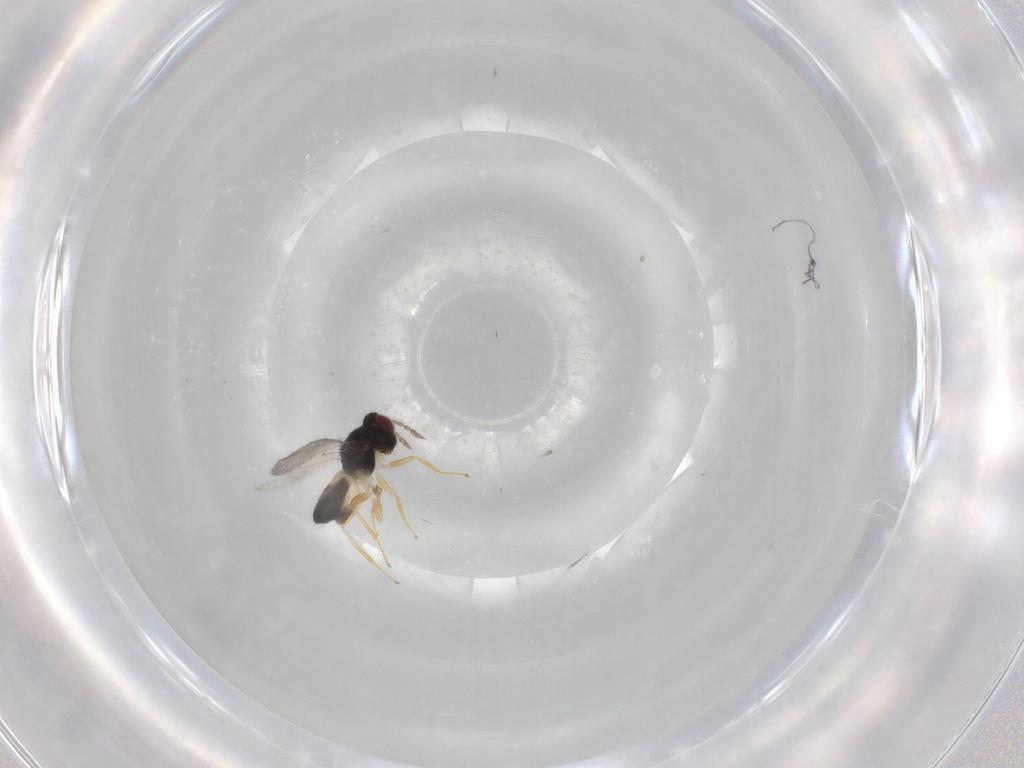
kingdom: Animalia
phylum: Arthropoda
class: Insecta
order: Hymenoptera
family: Eulophidae
